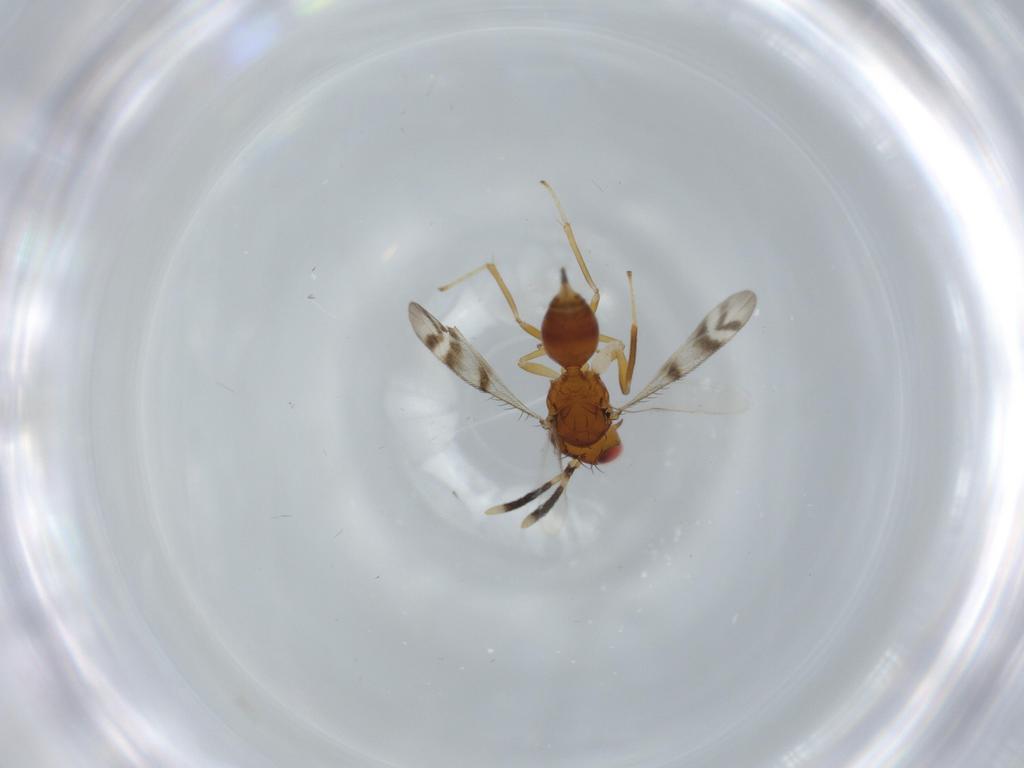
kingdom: Animalia
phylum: Arthropoda
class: Insecta
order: Hymenoptera
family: Diparidae
